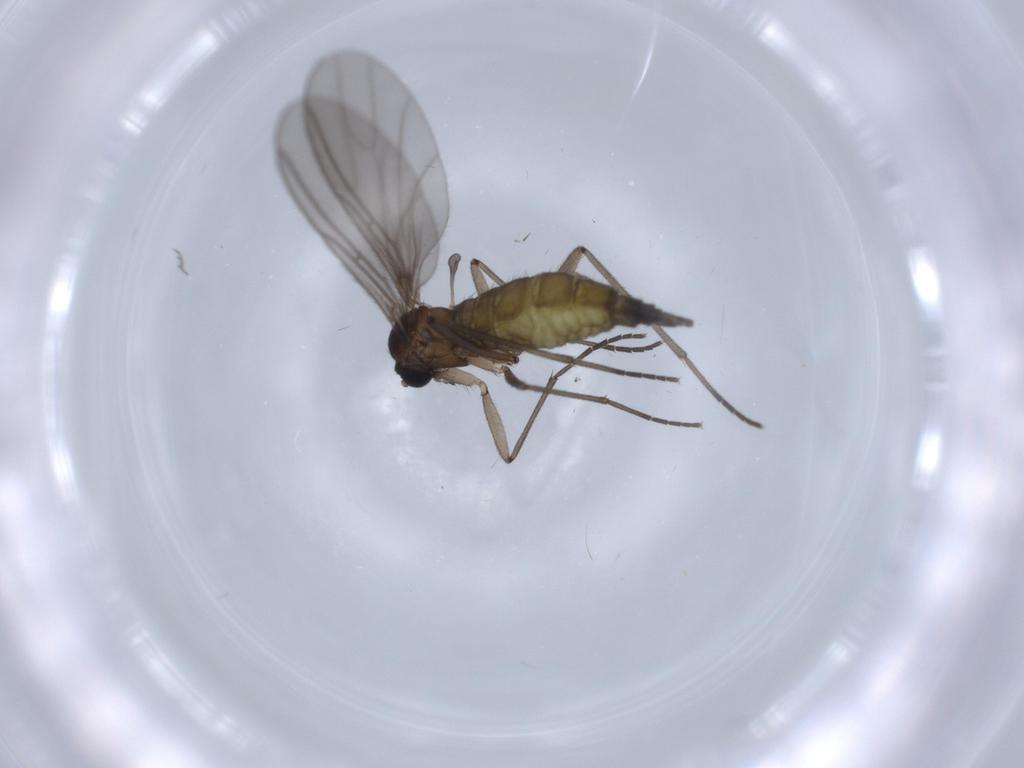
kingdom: Animalia
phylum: Arthropoda
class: Insecta
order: Diptera
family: Sciaridae
